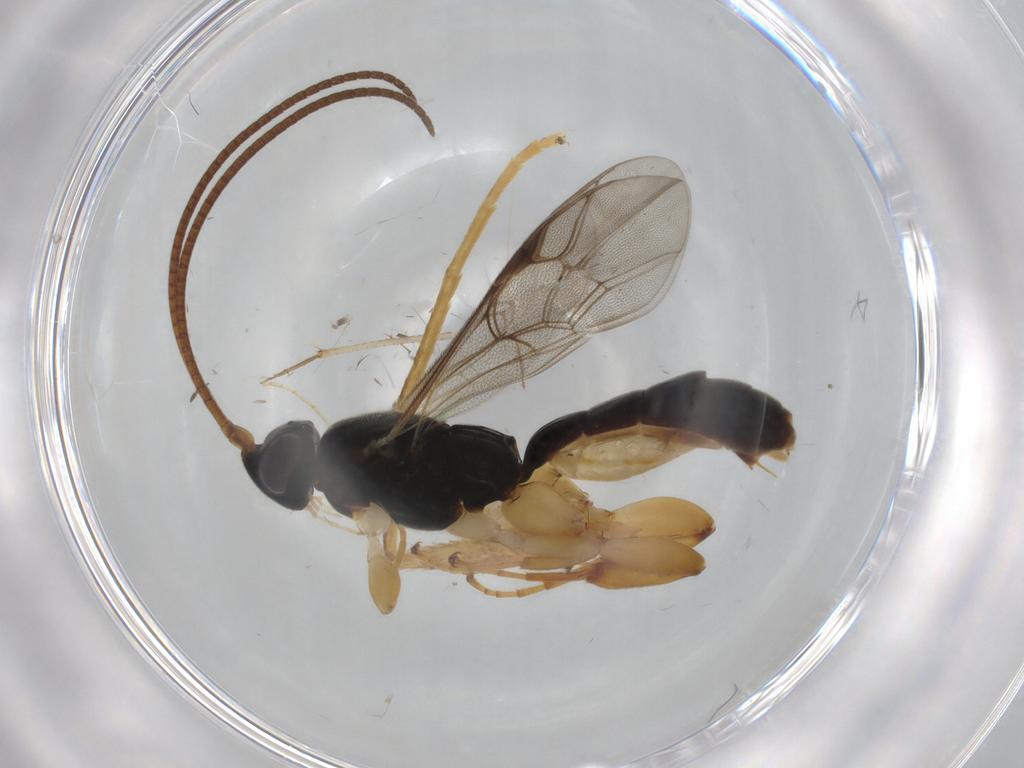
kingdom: Animalia
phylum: Arthropoda
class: Insecta
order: Hymenoptera
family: Ichneumonidae
